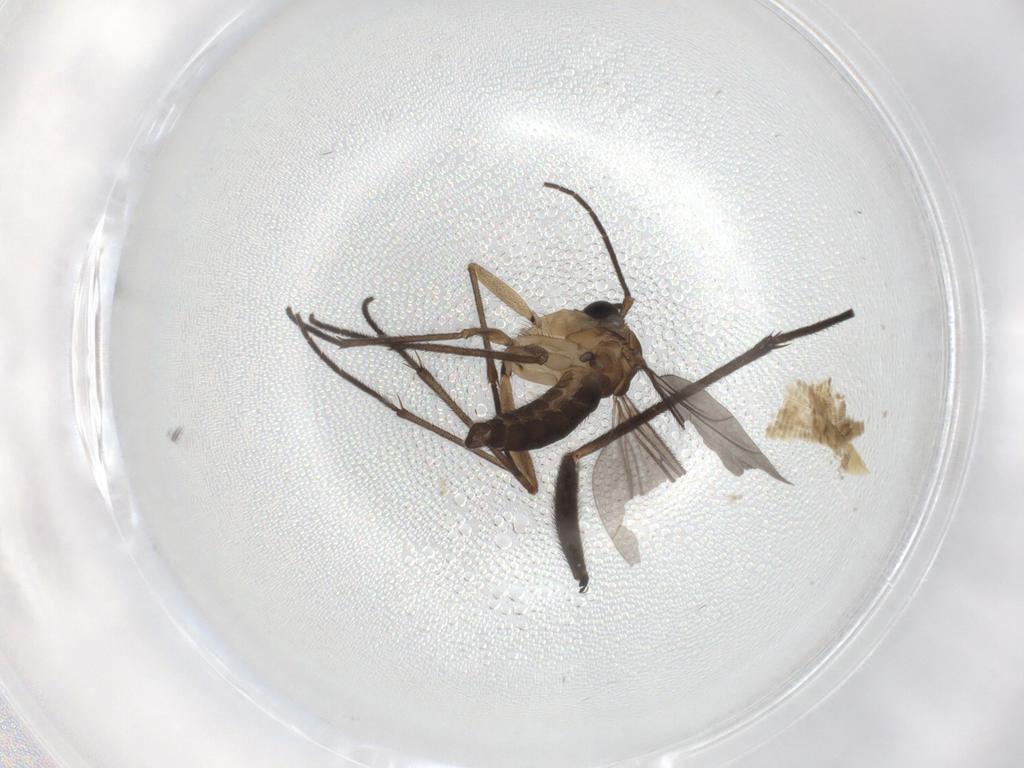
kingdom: Animalia
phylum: Arthropoda
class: Insecta
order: Diptera
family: Sciaridae
